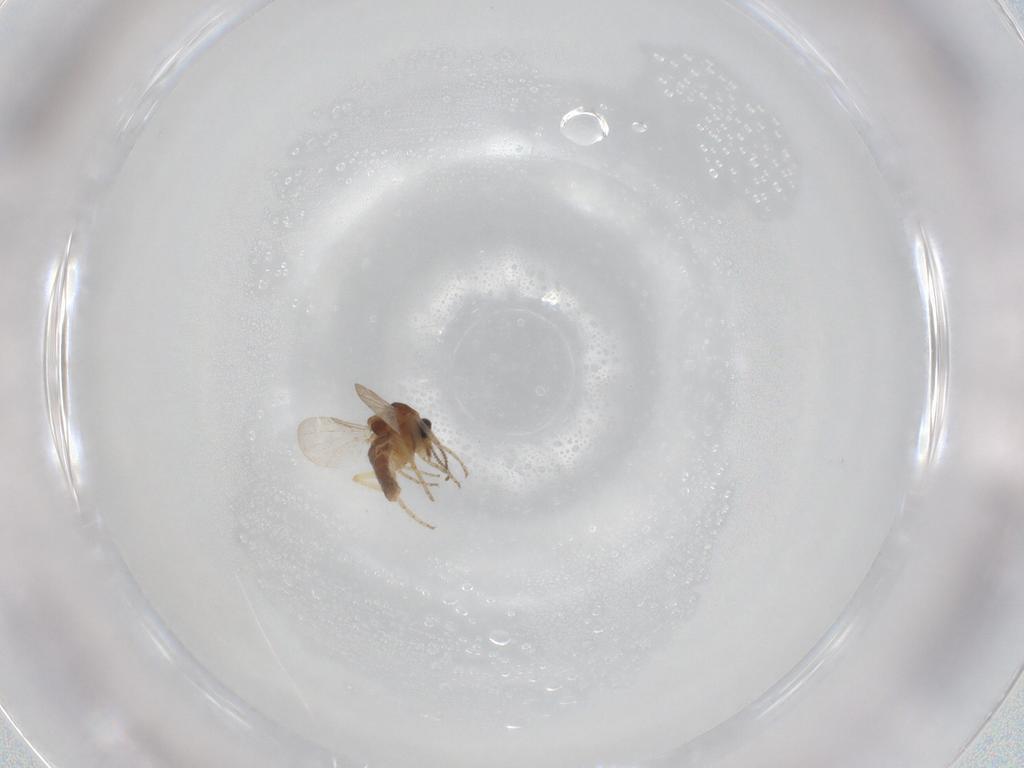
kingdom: Animalia
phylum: Arthropoda
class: Insecta
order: Diptera
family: Ceratopogonidae
